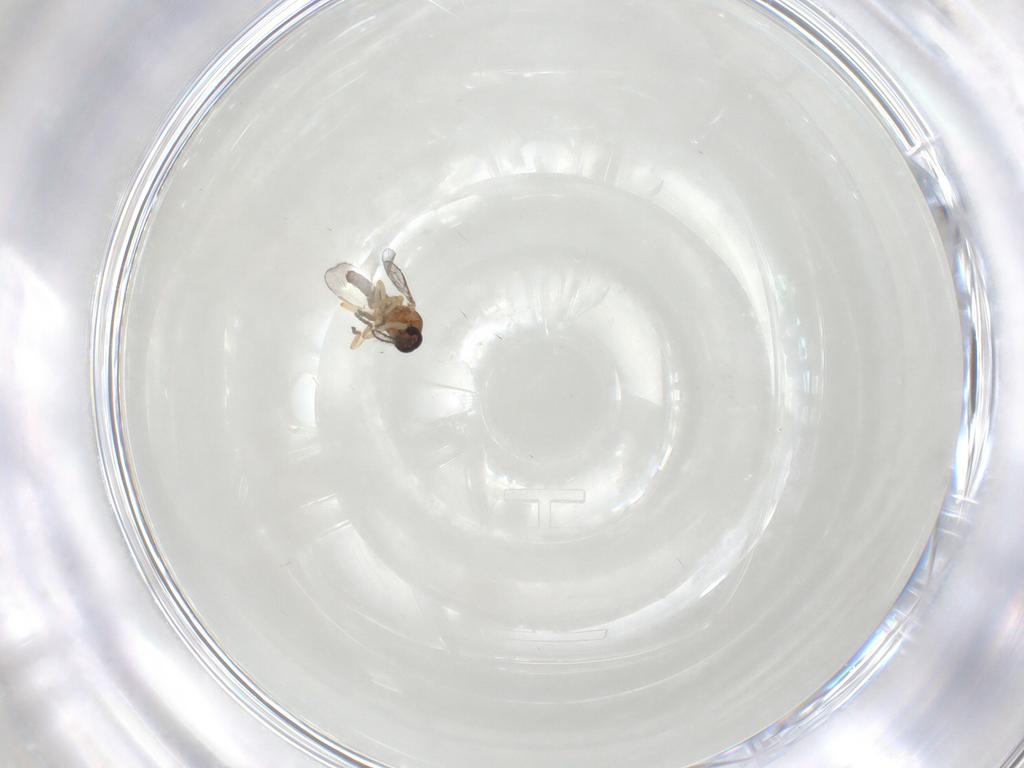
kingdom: Animalia
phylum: Arthropoda
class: Insecta
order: Diptera
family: Ceratopogonidae
